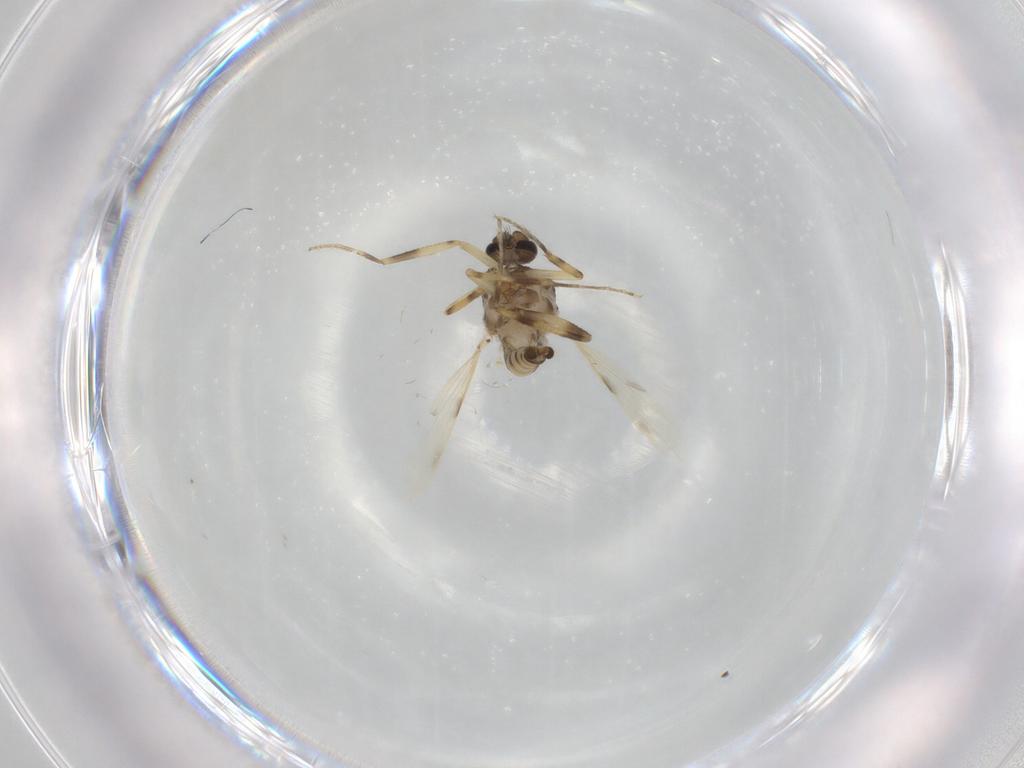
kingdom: Animalia
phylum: Arthropoda
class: Insecta
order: Diptera
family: Ceratopogonidae
